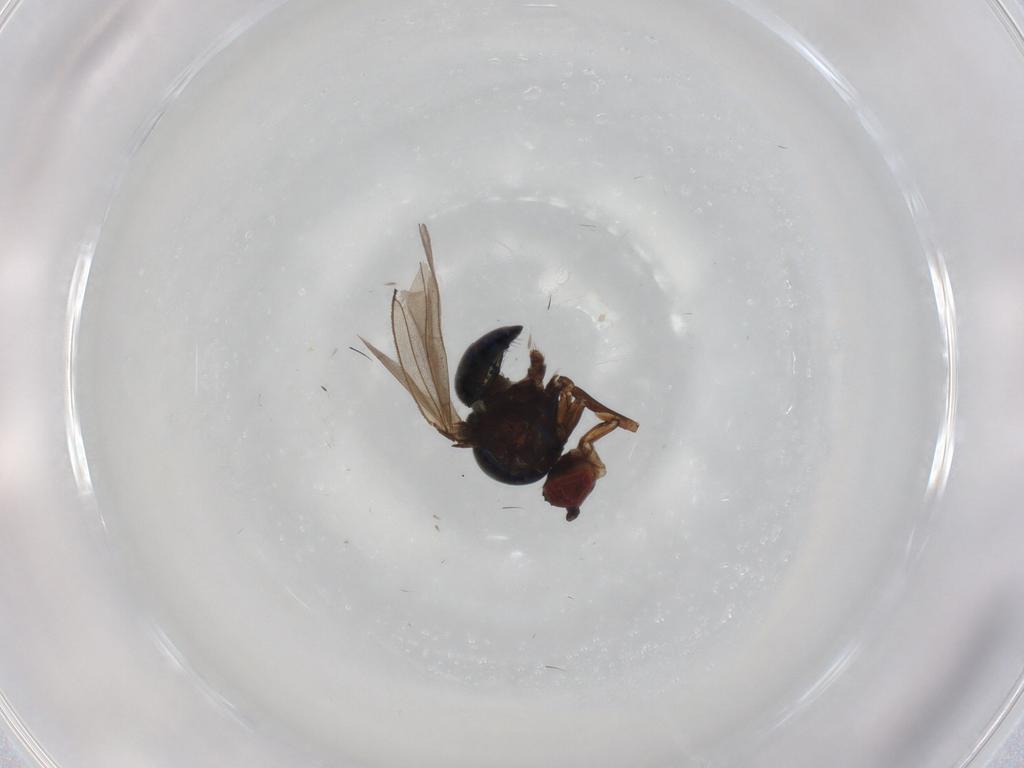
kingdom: Animalia
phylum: Arthropoda
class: Insecta
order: Diptera
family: Ephydridae
